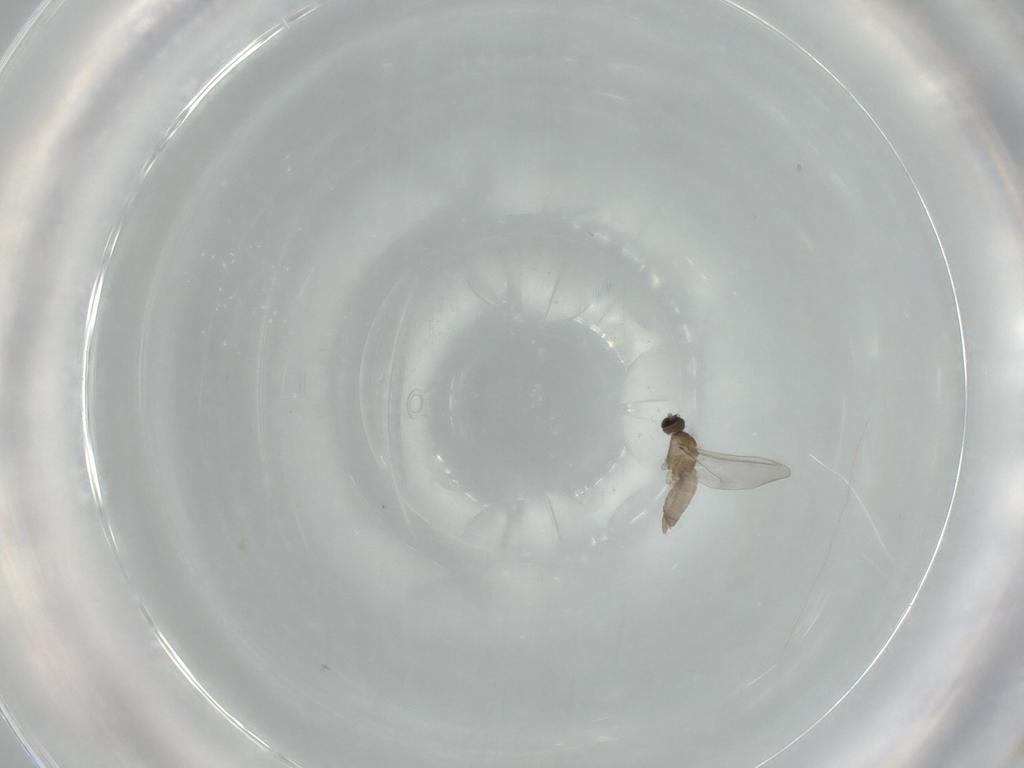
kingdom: Animalia
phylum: Arthropoda
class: Insecta
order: Diptera
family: Cecidomyiidae
